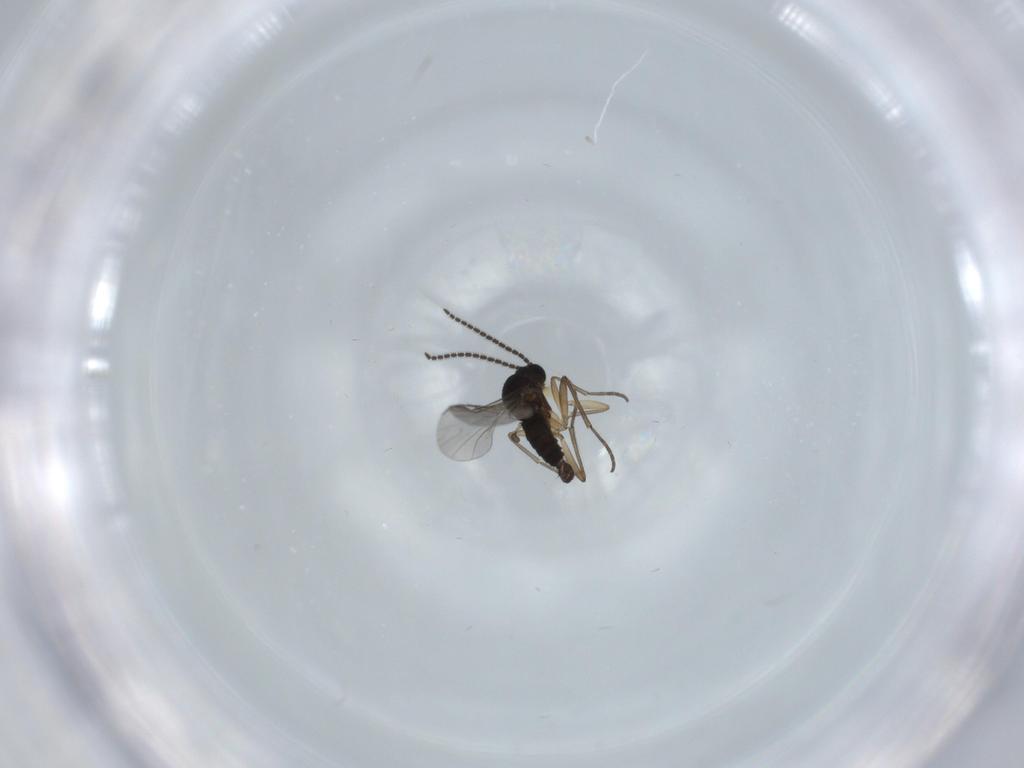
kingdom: Animalia
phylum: Arthropoda
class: Insecta
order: Diptera
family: Sciaridae
